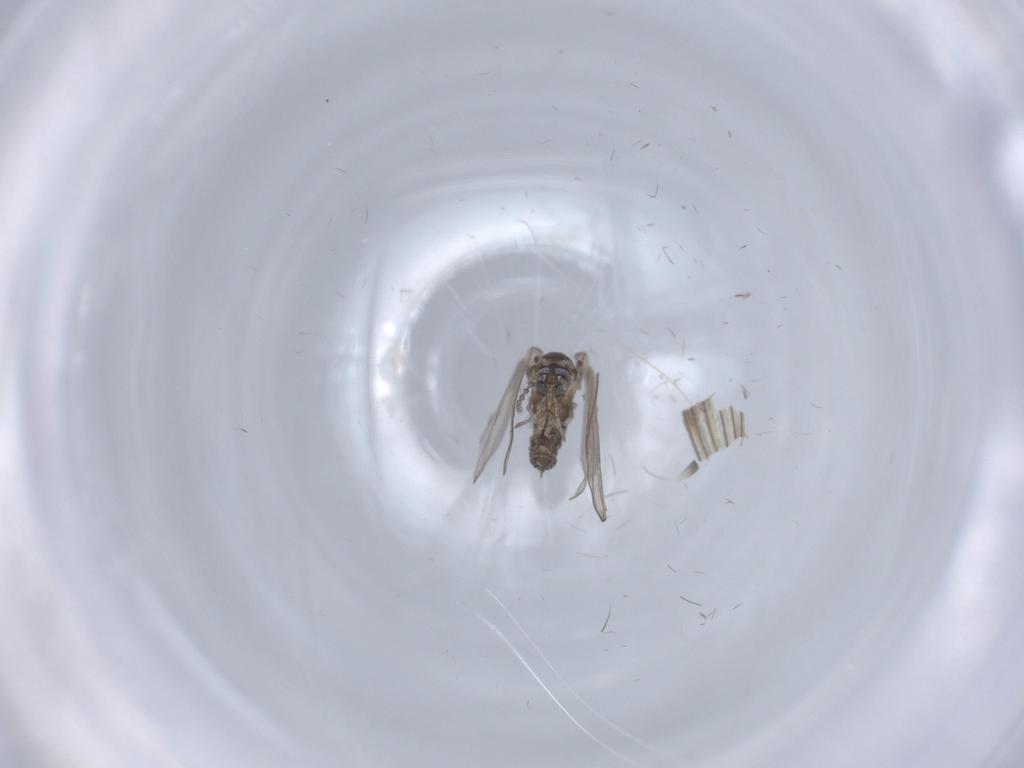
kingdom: Animalia
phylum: Arthropoda
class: Insecta
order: Diptera
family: Psychodidae
